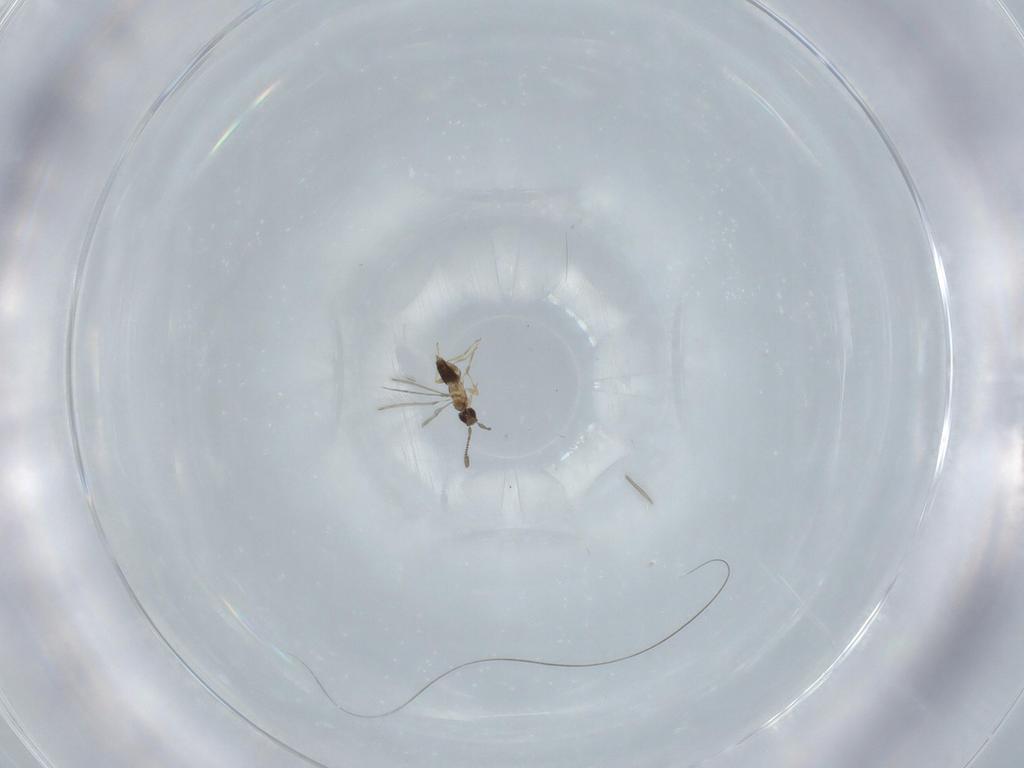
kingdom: Animalia
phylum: Arthropoda
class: Insecta
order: Hymenoptera
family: Mymaridae
